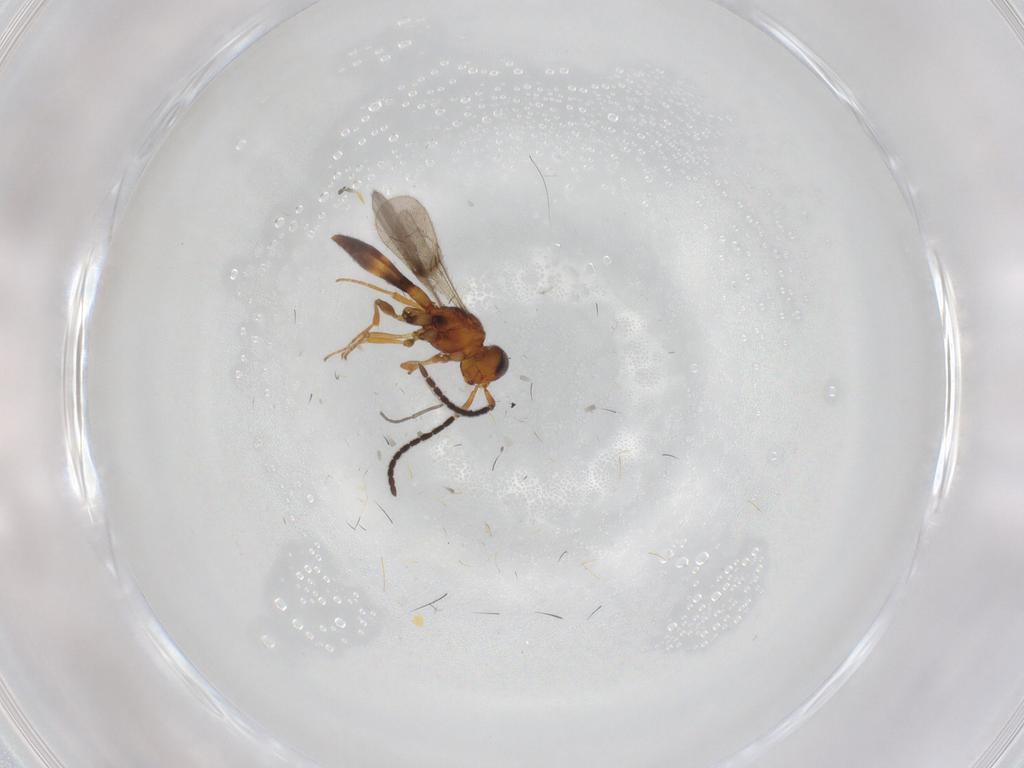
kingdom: Animalia
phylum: Arthropoda
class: Insecta
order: Hymenoptera
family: Scelionidae
